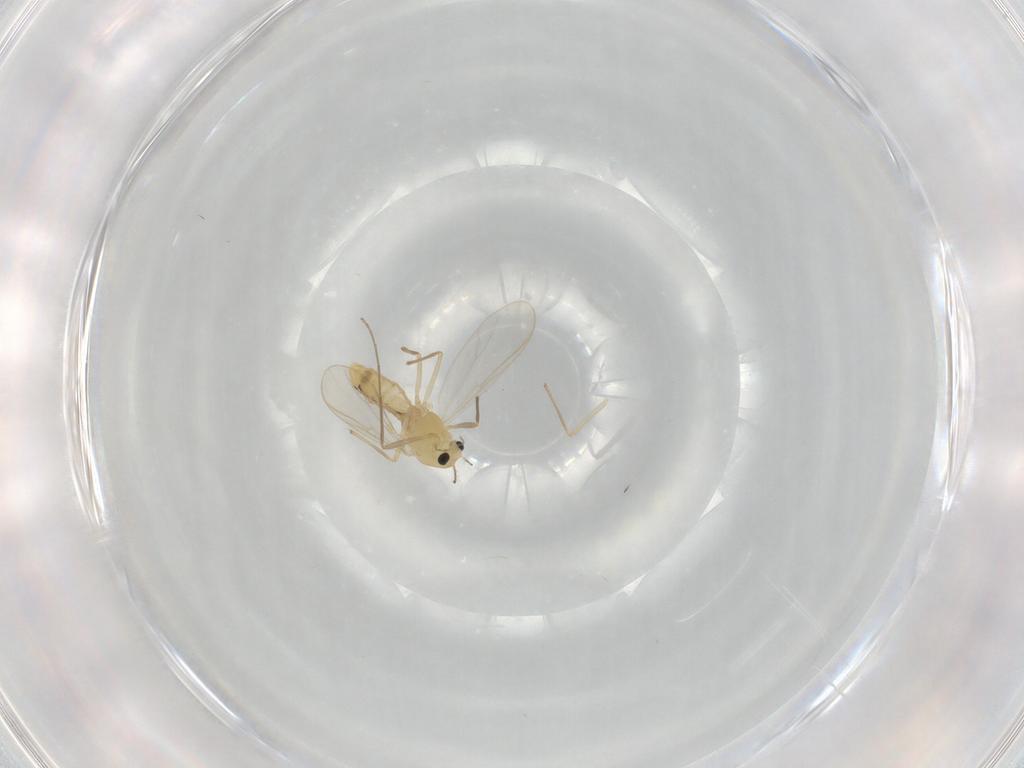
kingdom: Animalia
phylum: Arthropoda
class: Insecta
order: Diptera
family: Chironomidae
